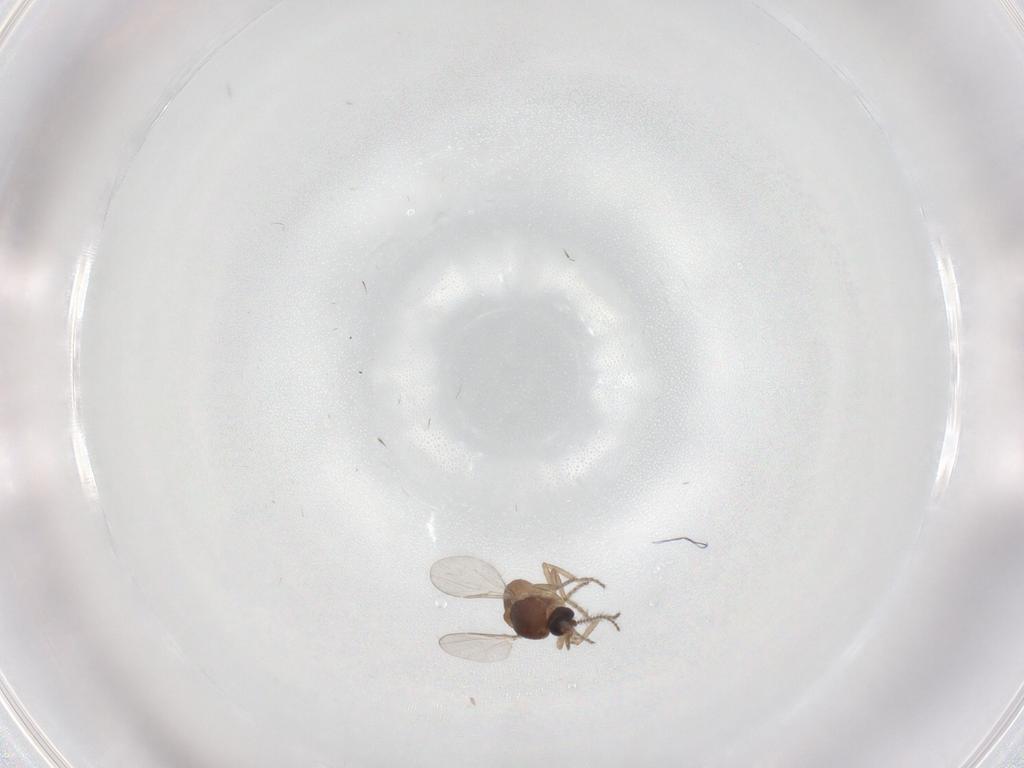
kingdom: Animalia
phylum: Arthropoda
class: Insecta
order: Diptera
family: Ceratopogonidae
